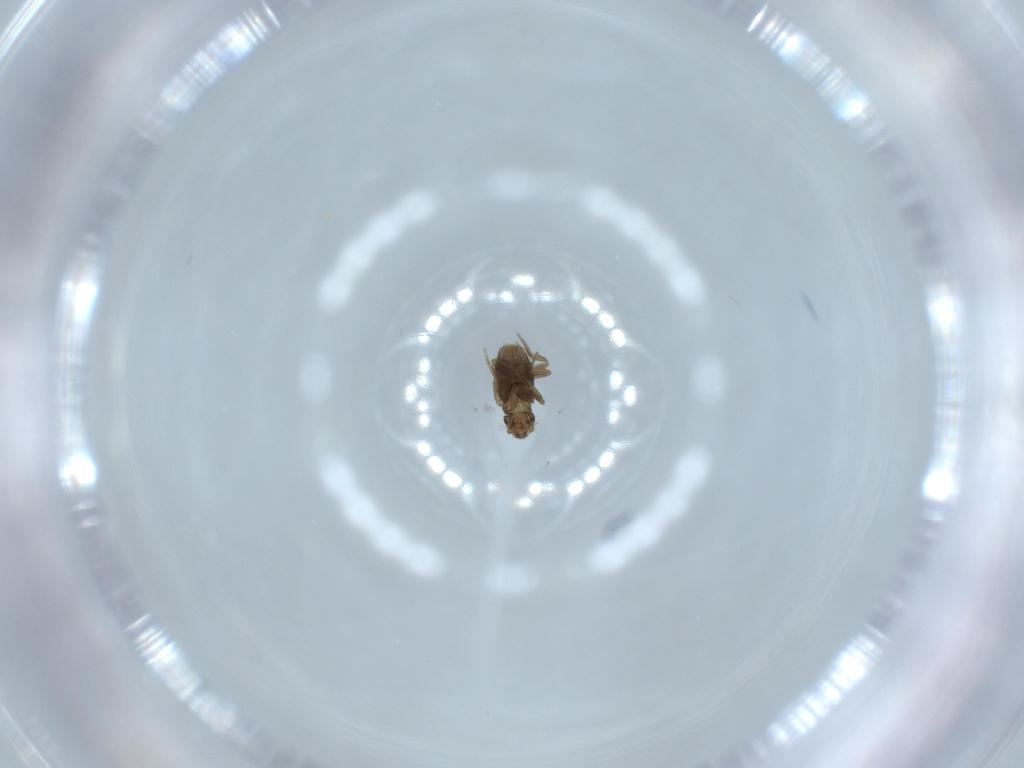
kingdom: Animalia
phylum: Arthropoda
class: Insecta
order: Diptera
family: Phoridae
